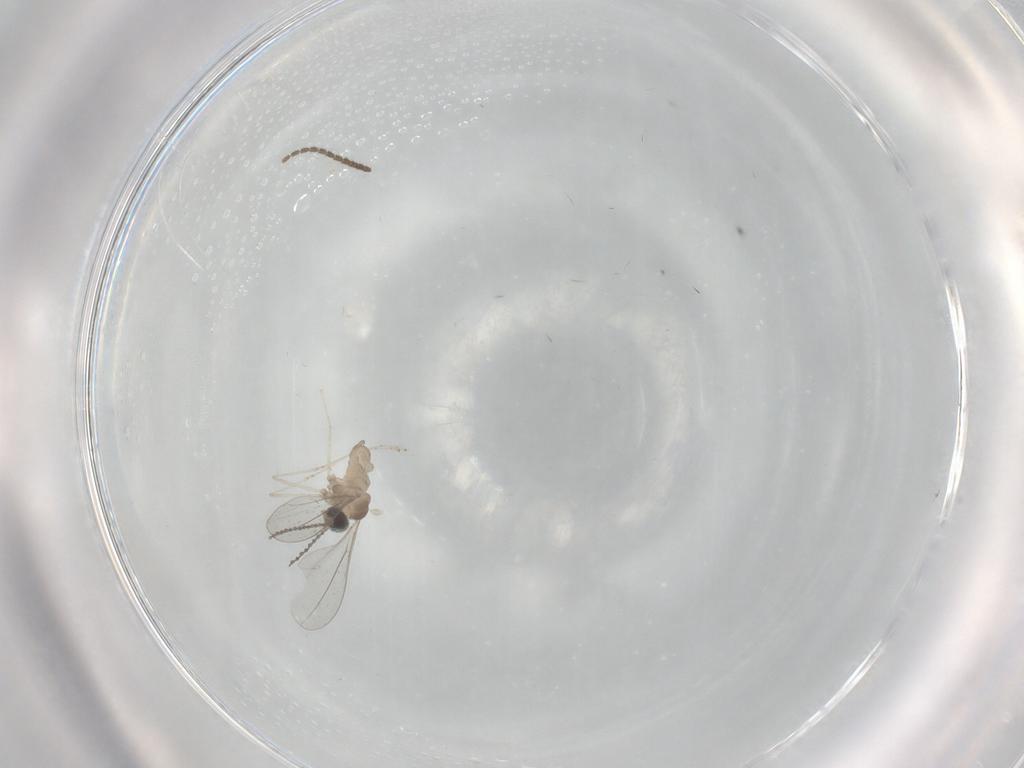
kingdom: Animalia
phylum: Arthropoda
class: Insecta
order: Diptera
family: Sciaridae
